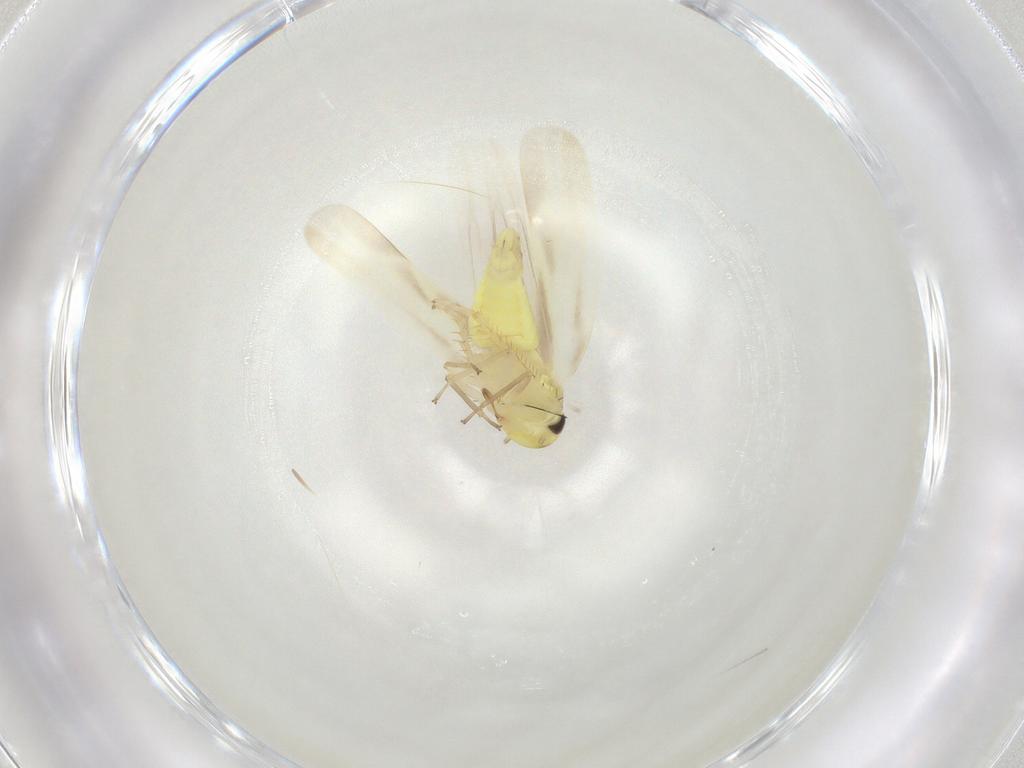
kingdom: Animalia
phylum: Arthropoda
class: Insecta
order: Hemiptera
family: Cicadellidae
